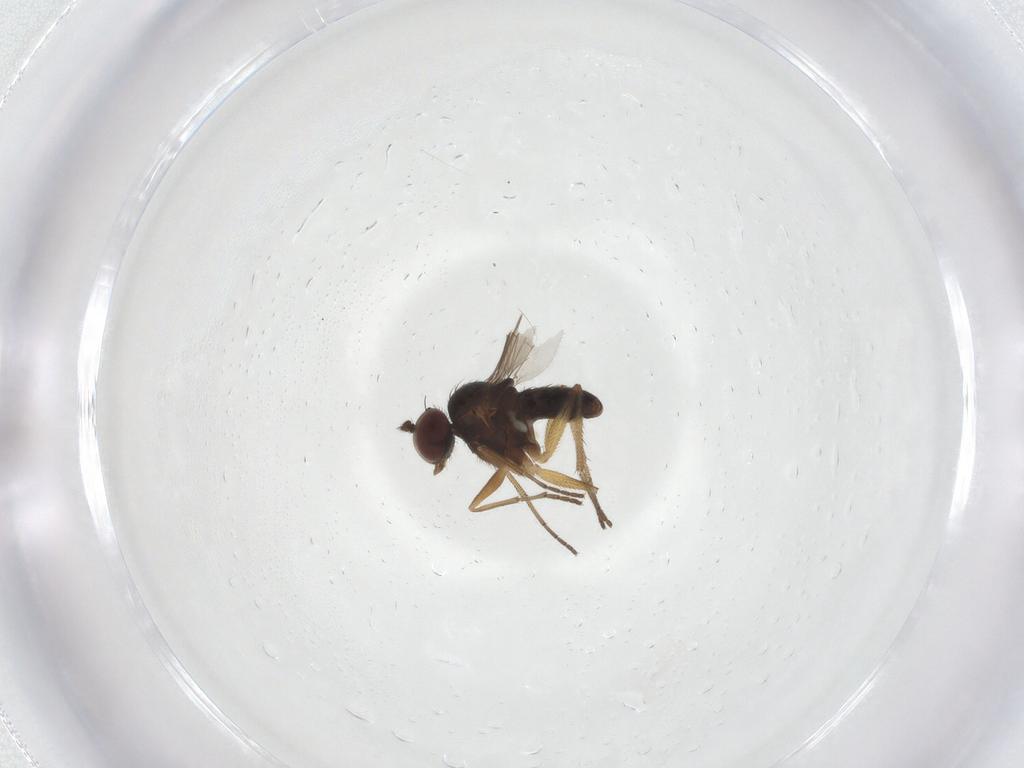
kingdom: Animalia
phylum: Arthropoda
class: Insecta
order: Diptera
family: Dolichopodidae
